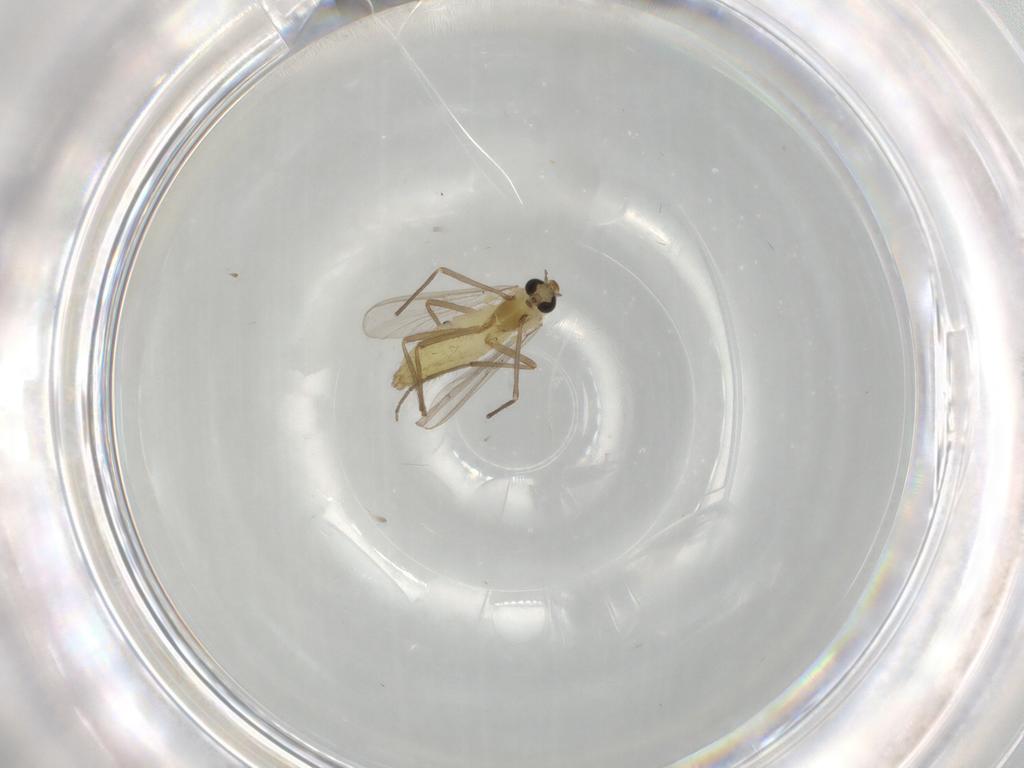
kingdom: Animalia
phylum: Arthropoda
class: Insecta
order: Diptera
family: Chironomidae
